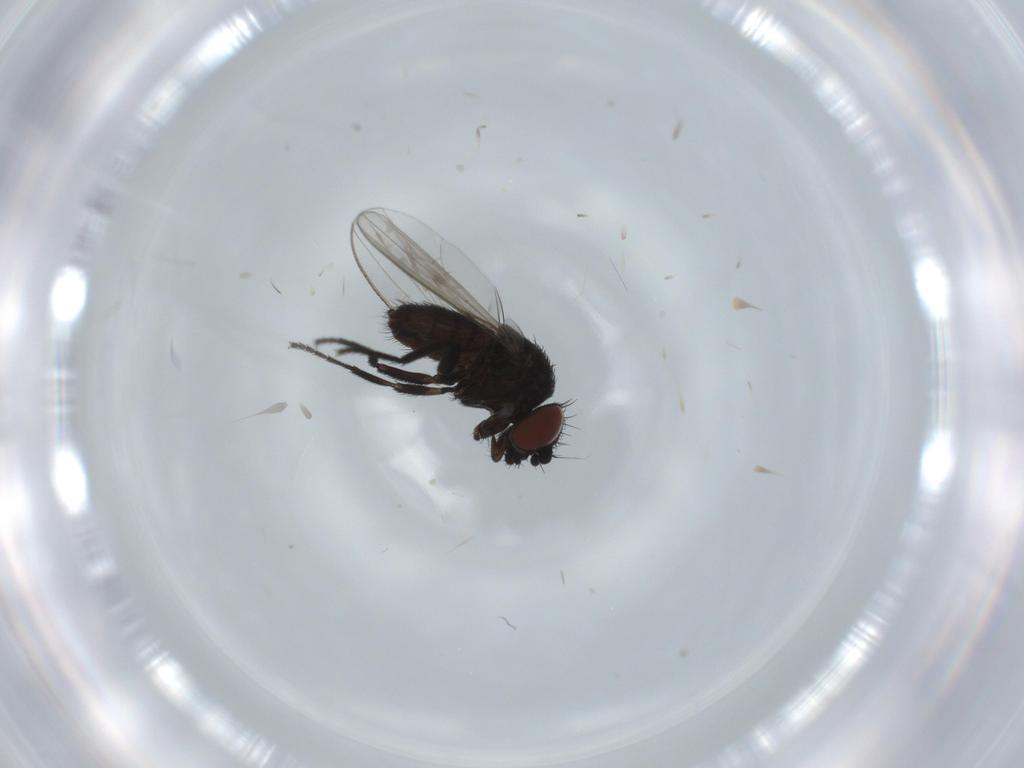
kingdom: Animalia
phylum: Arthropoda
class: Insecta
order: Diptera
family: Milichiidae
